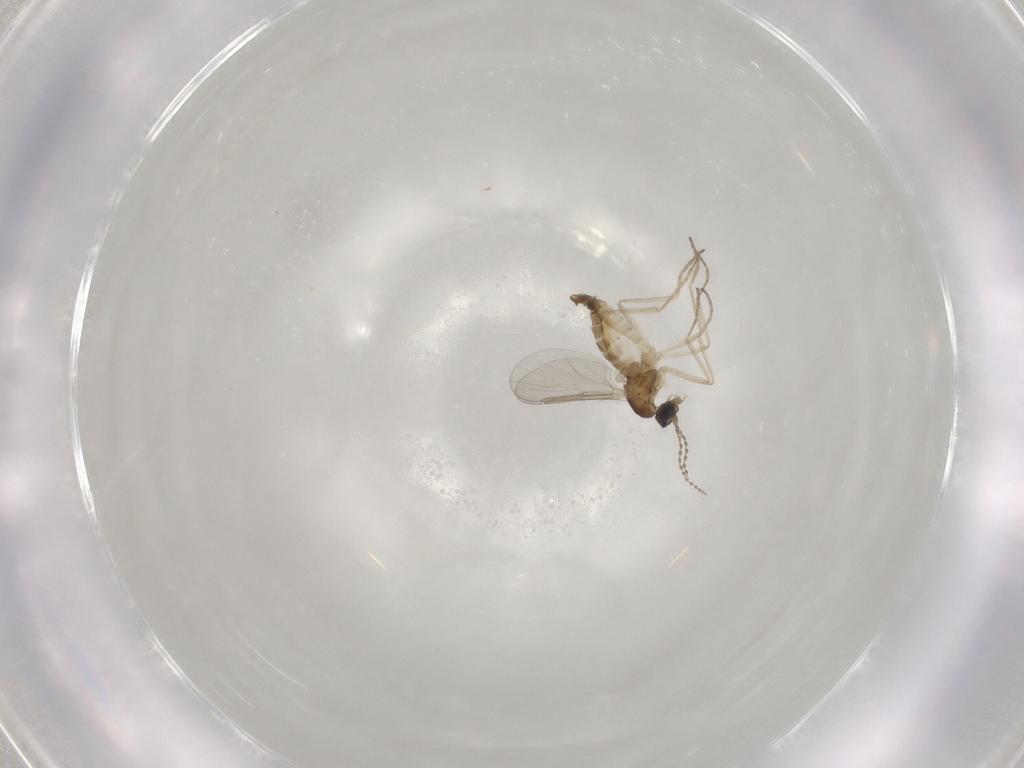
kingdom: Animalia
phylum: Arthropoda
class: Insecta
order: Diptera
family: Cecidomyiidae
